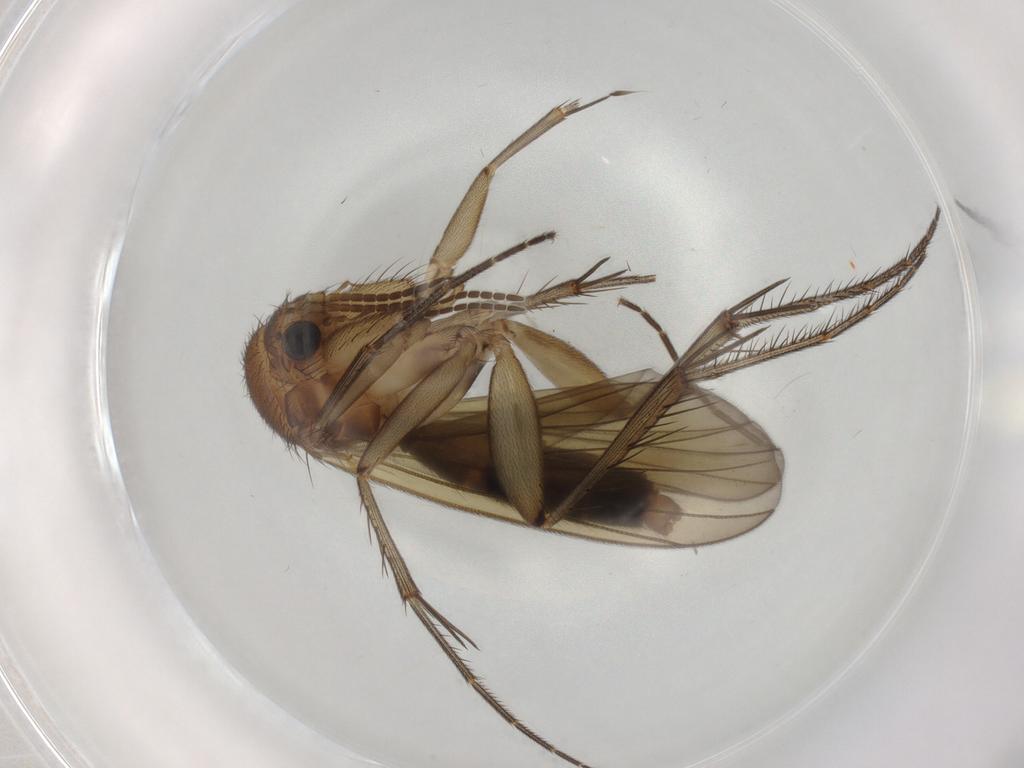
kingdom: Animalia
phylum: Arthropoda
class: Insecta
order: Diptera
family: Mycetophilidae
